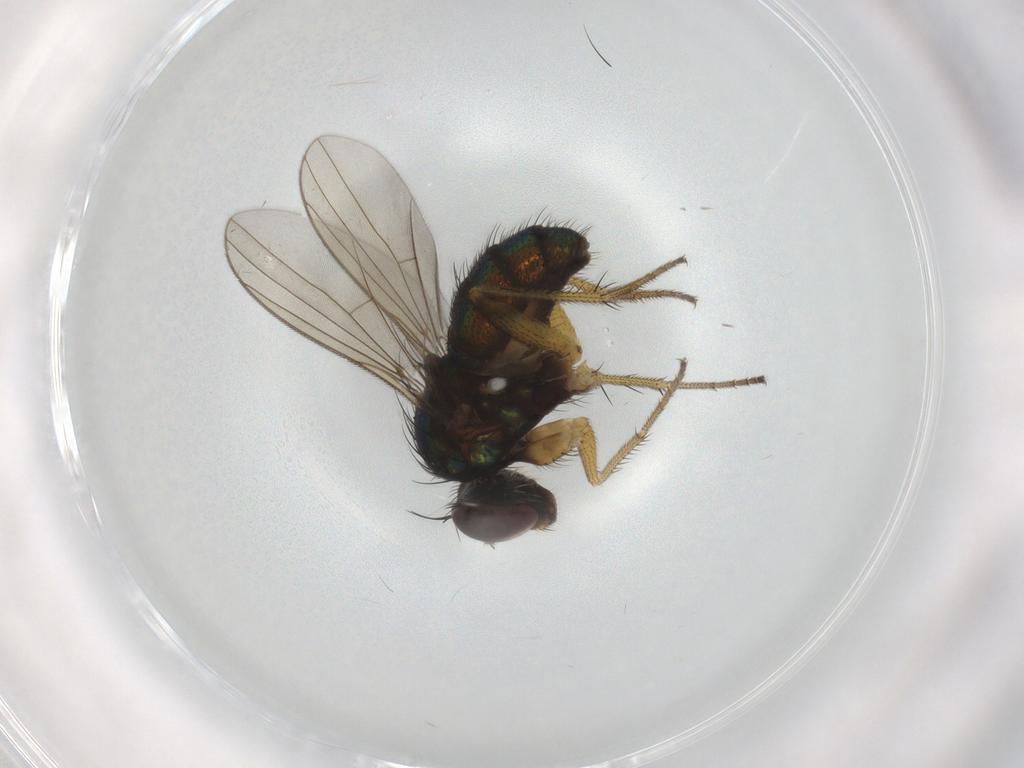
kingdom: Animalia
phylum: Arthropoda
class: Insecta
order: Diptera
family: Dolichopodidae
